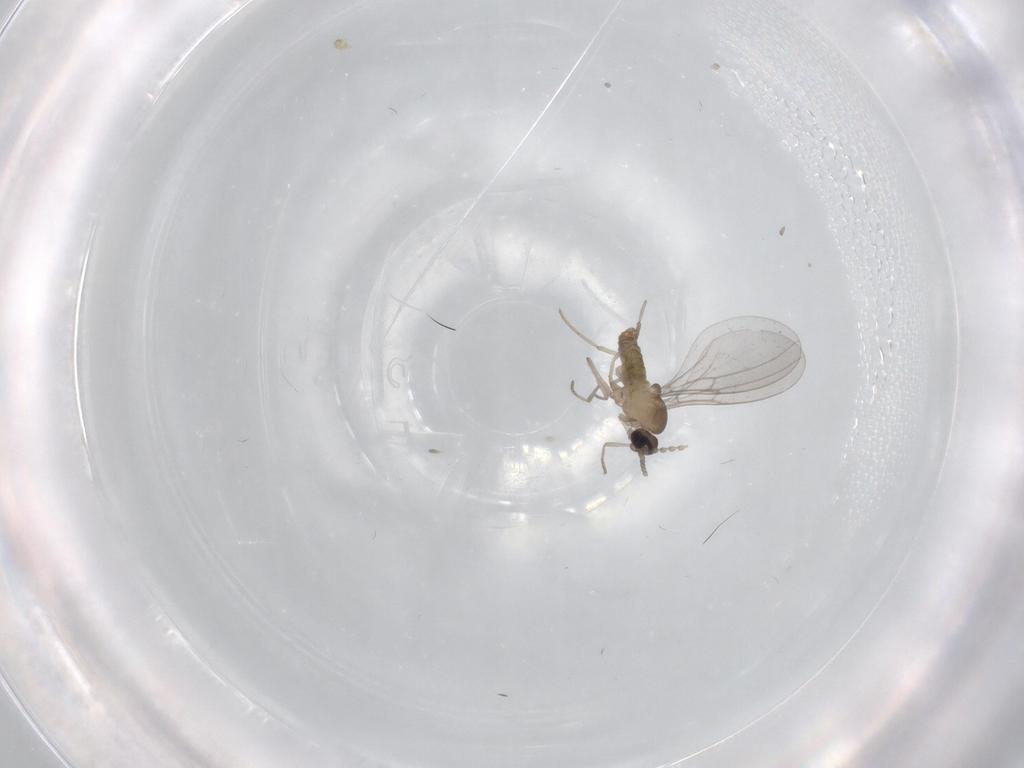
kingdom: Animalia
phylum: Arthropoda
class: Insecta
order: Diptera
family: Cecidomyiidae
